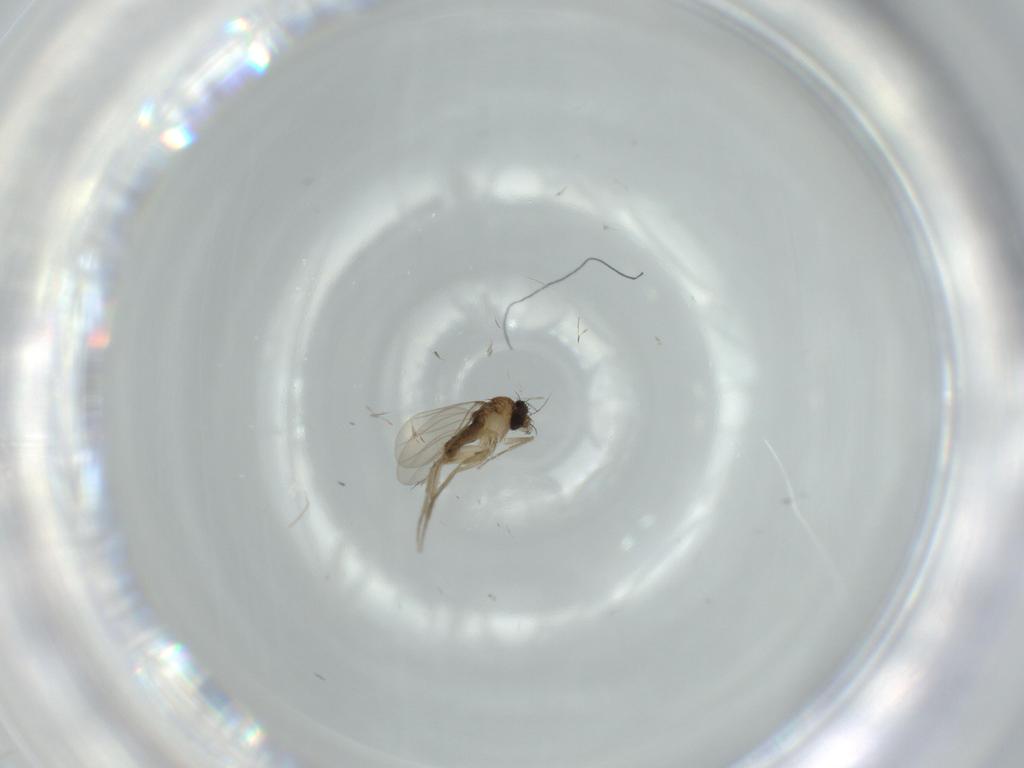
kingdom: Animalia
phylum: Arthropoda
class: Insecta
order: Diptera
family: Phoridae
